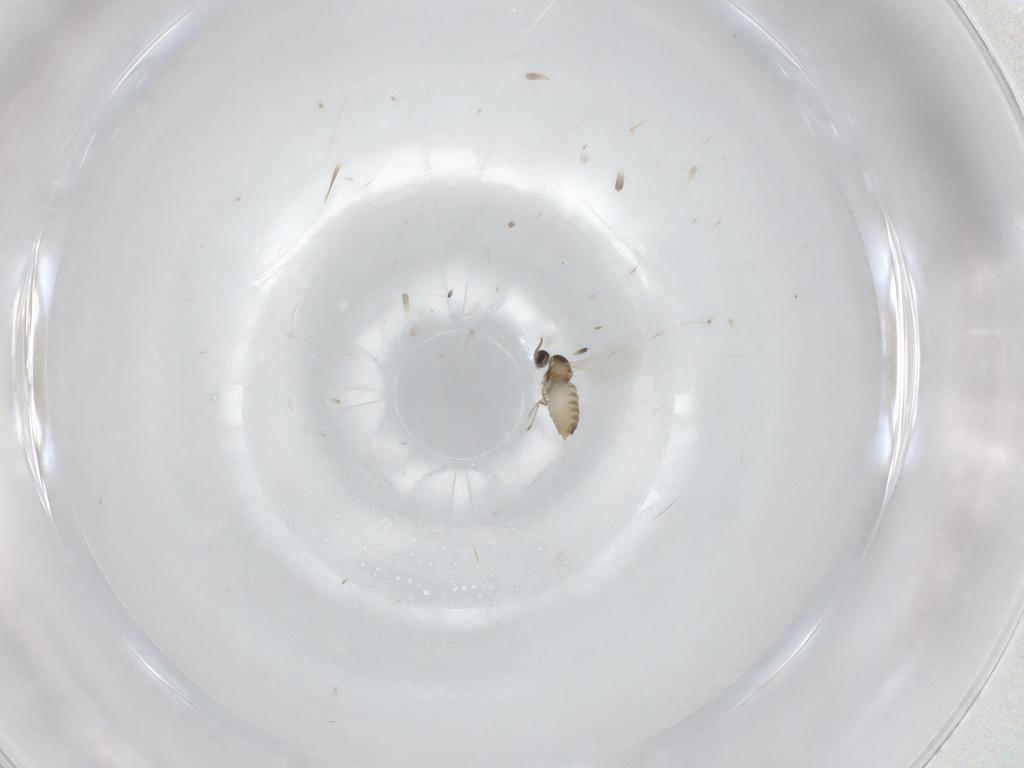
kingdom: Animalia
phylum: Arthropoda
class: Insecta
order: Diptera
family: Cecidomyiidae
